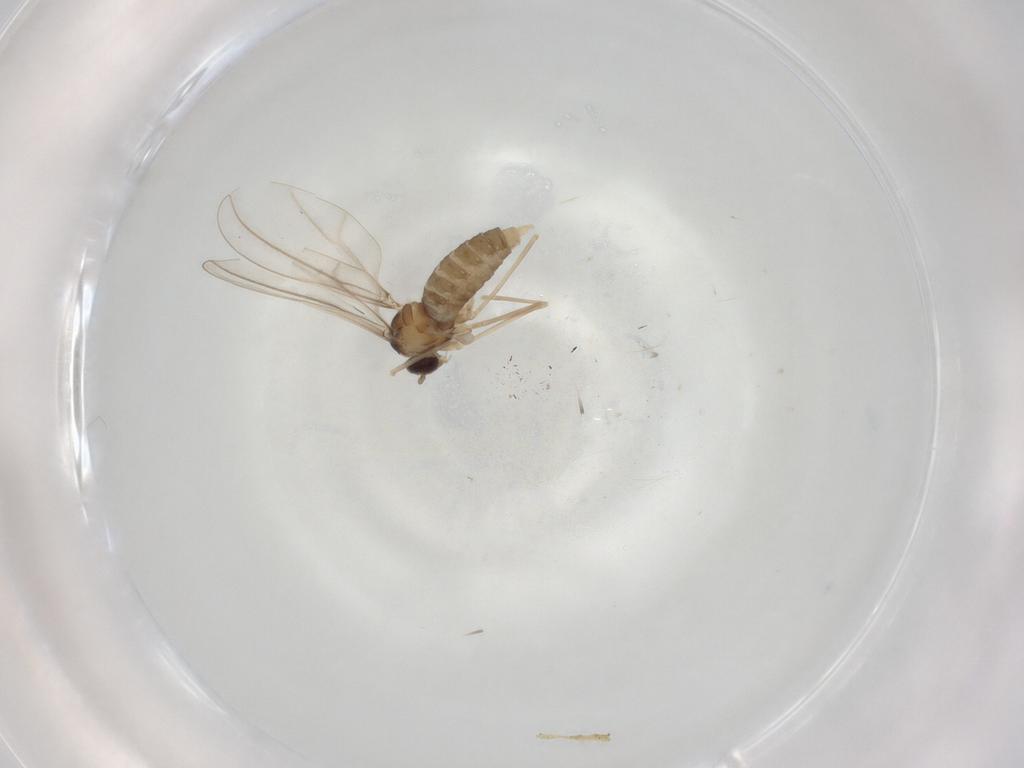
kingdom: Animalia
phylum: Arthropoda
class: Insecta
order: Diptera
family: Cecidomyiidae
